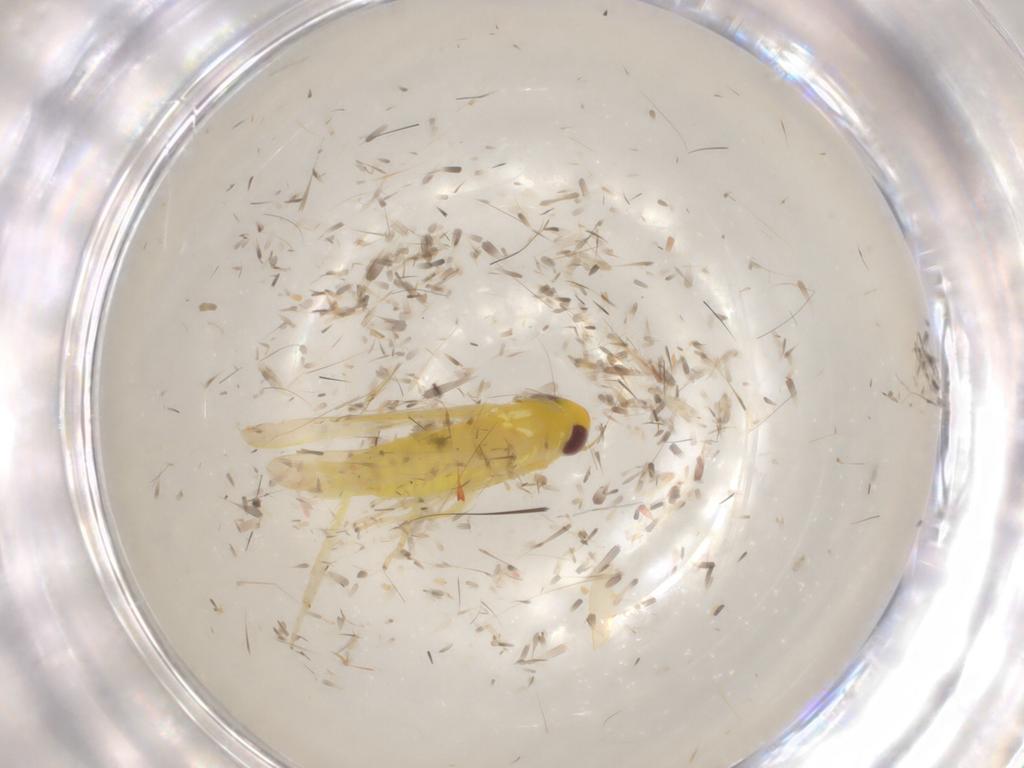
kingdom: Animalia
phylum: Arthropoda
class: Insecta
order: Hemiptera
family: Cicadellidae
